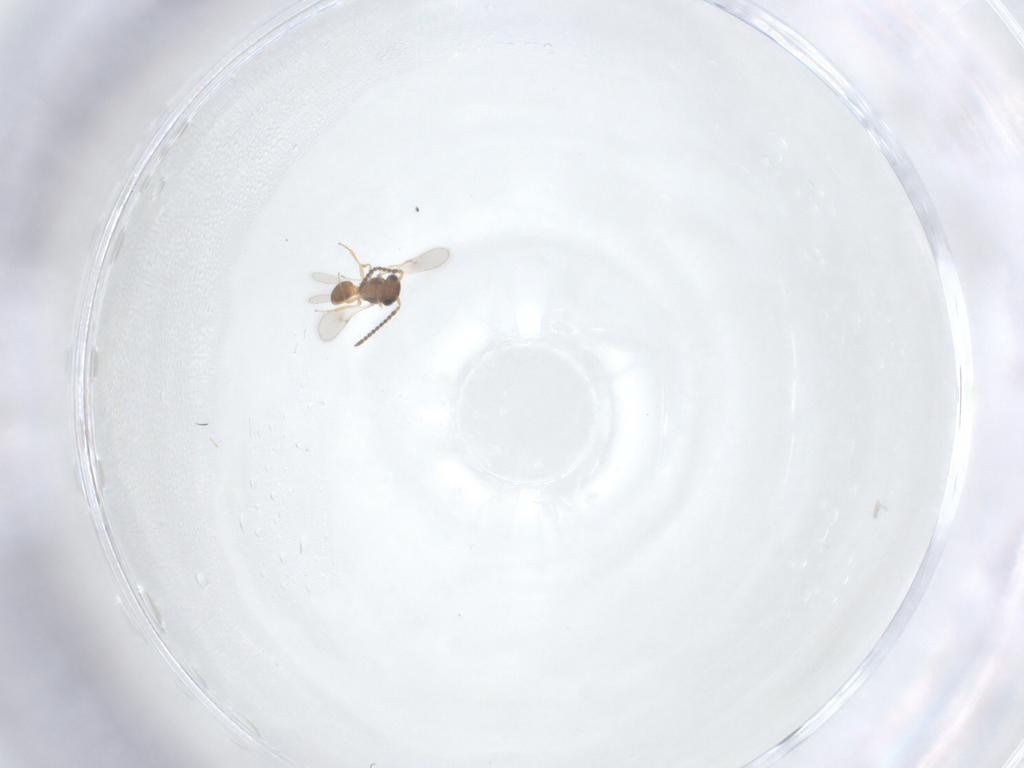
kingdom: Animalia
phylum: Arthropoda
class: Insecta
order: Hymenoptera
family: Scelionidae
